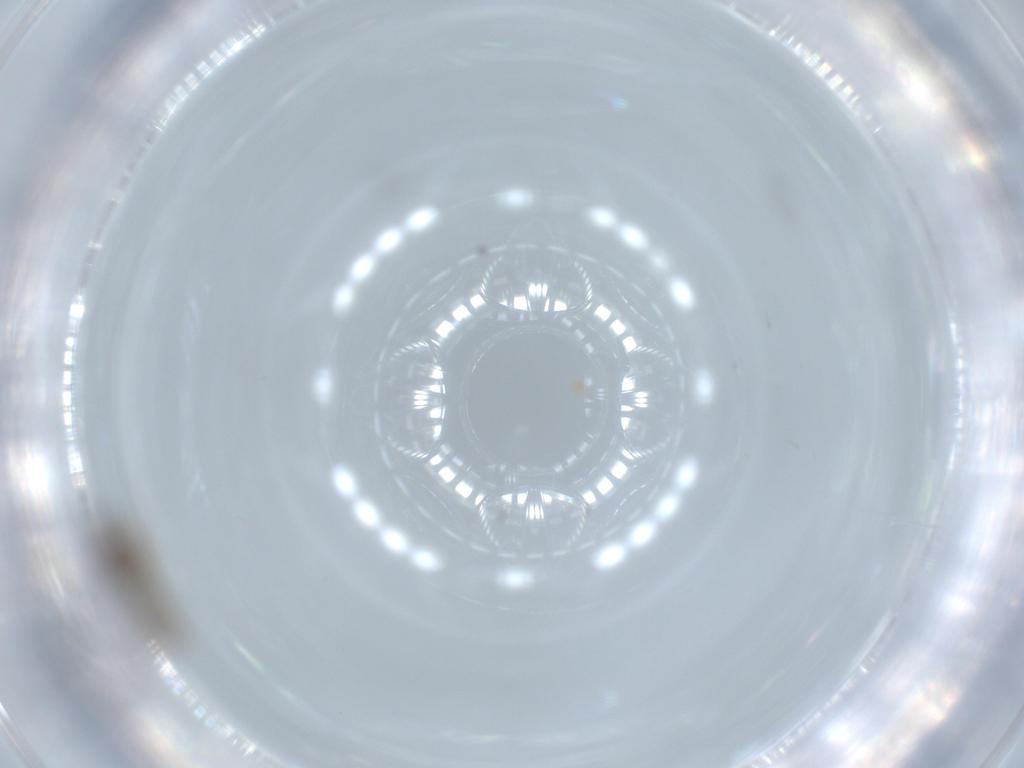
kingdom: Animalia
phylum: Arthropoda
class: Insecta
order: Diptera
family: Cecidomyiidae
